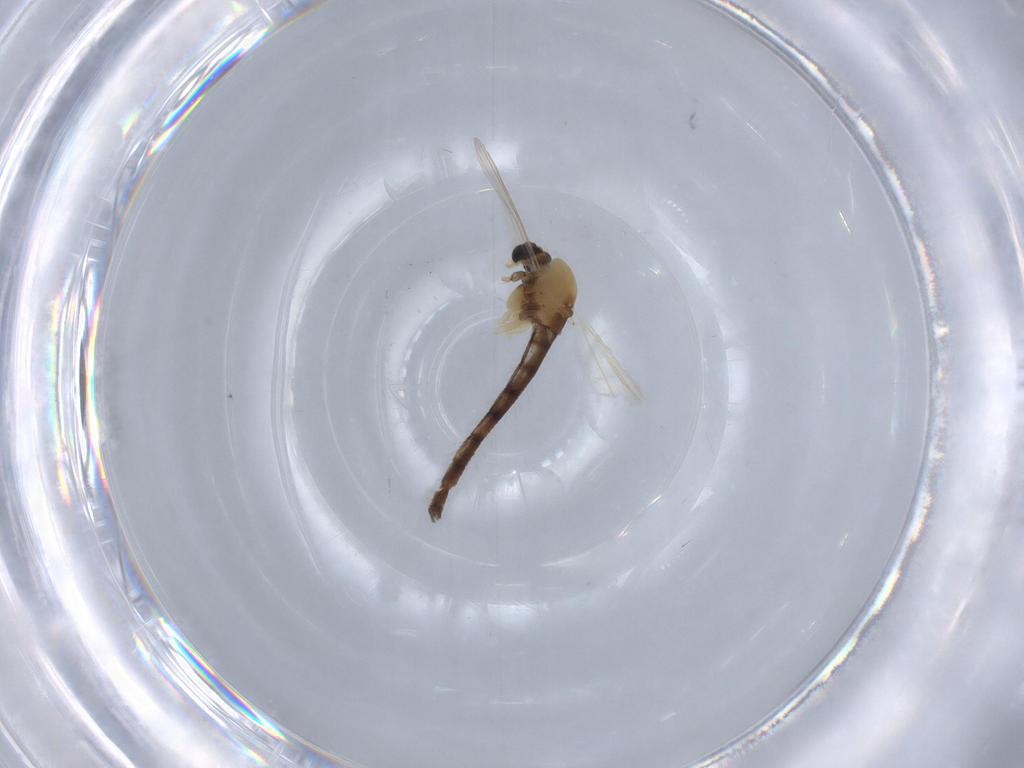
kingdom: Animalia
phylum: Arthropoda
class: Insecta
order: Diptera
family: Chironomidae
